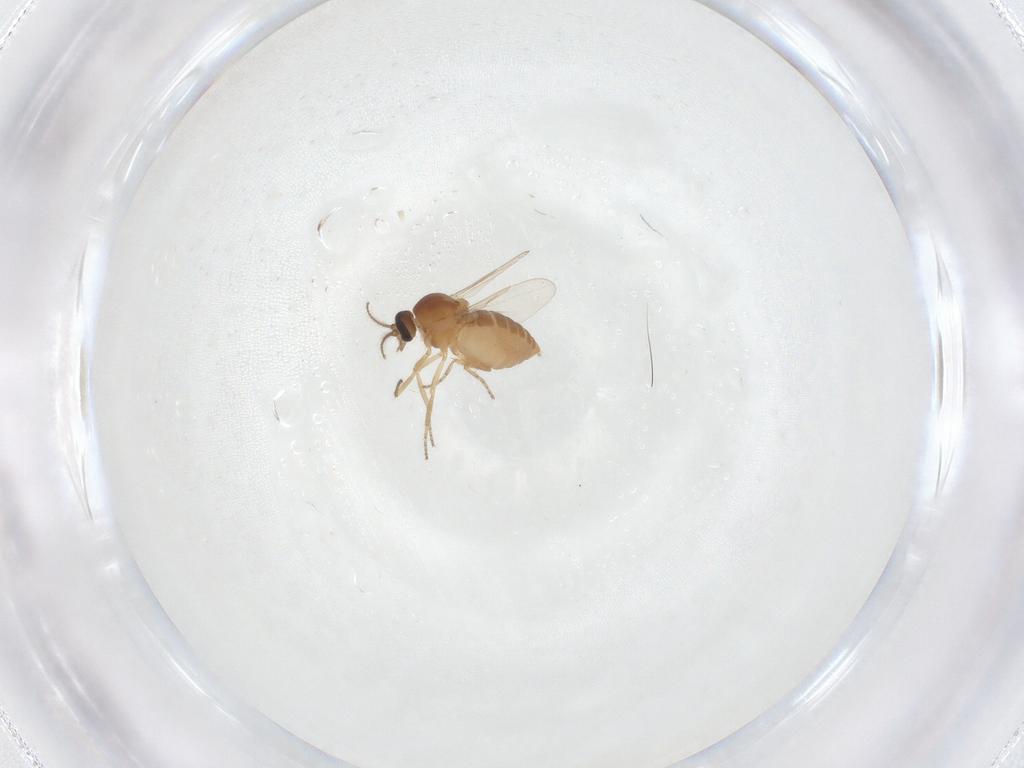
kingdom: Animalia
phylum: Arthropoda
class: Insecta
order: Diptera
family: Ceratopogonidae
